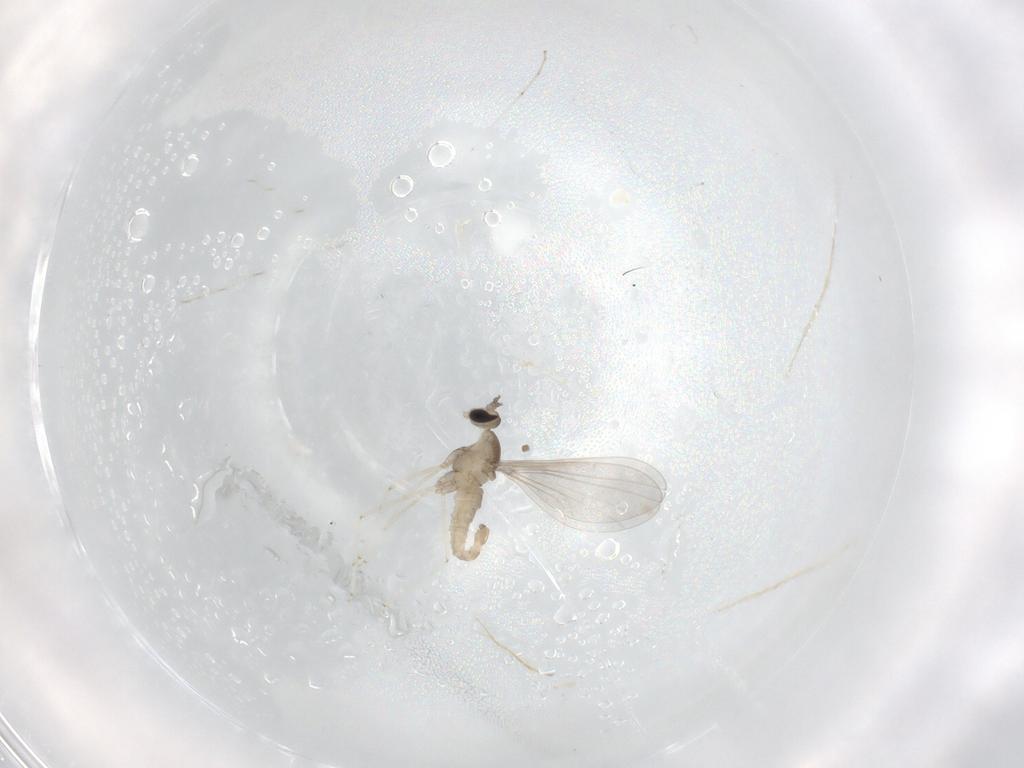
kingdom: Animalia
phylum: Arthropoda
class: Insecta
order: Diptera
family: Cecidomyiidae
